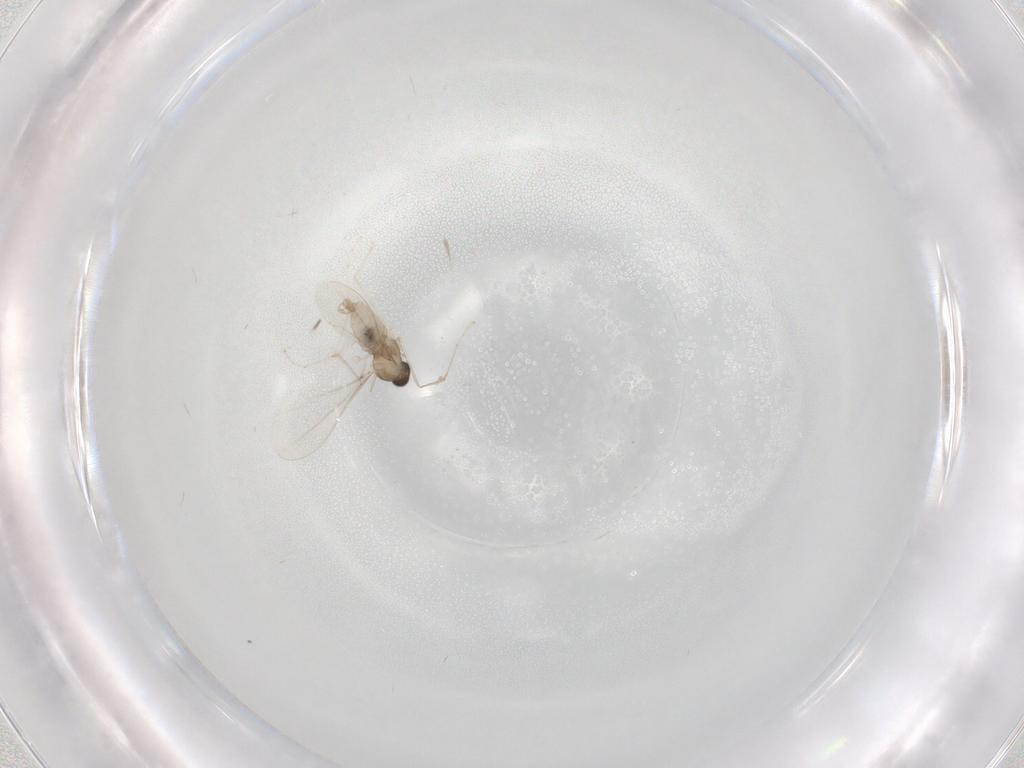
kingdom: Animalia
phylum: Arthropoda
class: Insecta
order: Diptera
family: Cecidomyiidae
